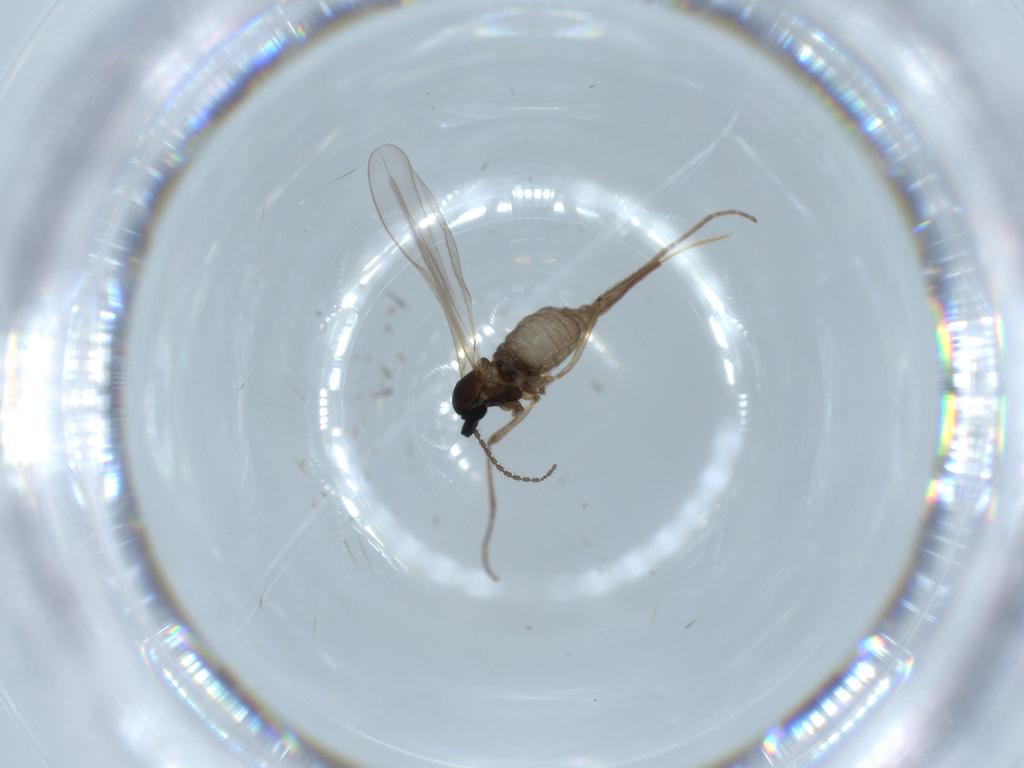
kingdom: Animalia
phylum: Arthropoda
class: Insecta
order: Diptera
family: Cecidomyiidae
